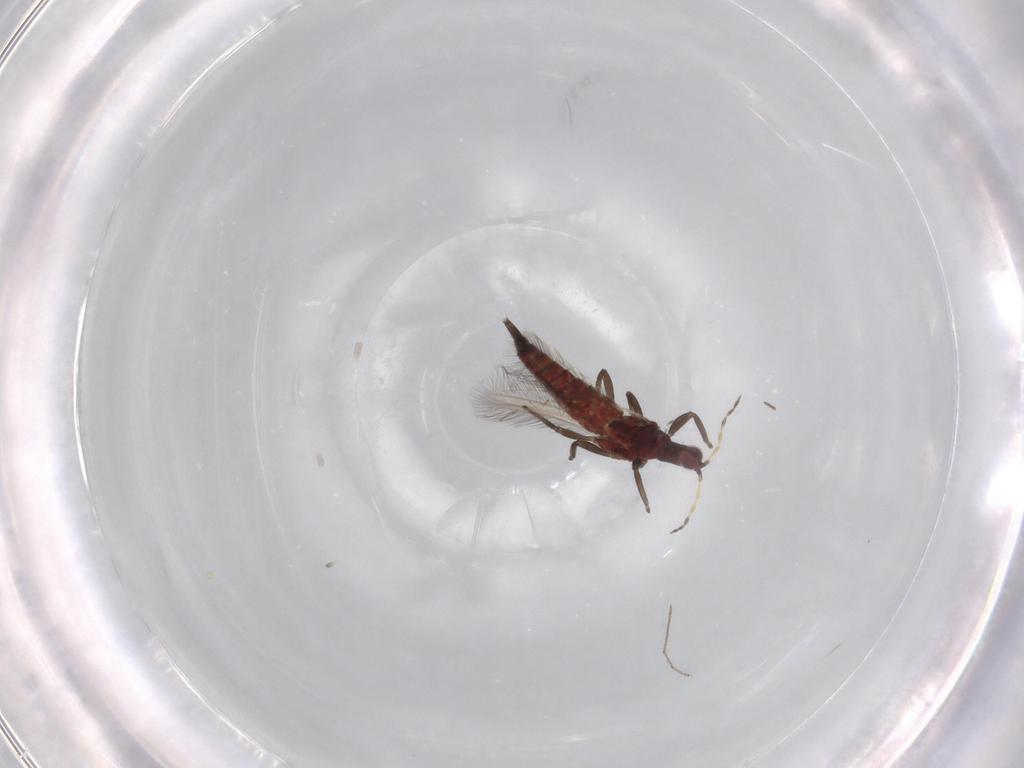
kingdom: Animalia
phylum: Arthropoda
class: Insecta
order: Thysanoptera
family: Phlaeothripidae
